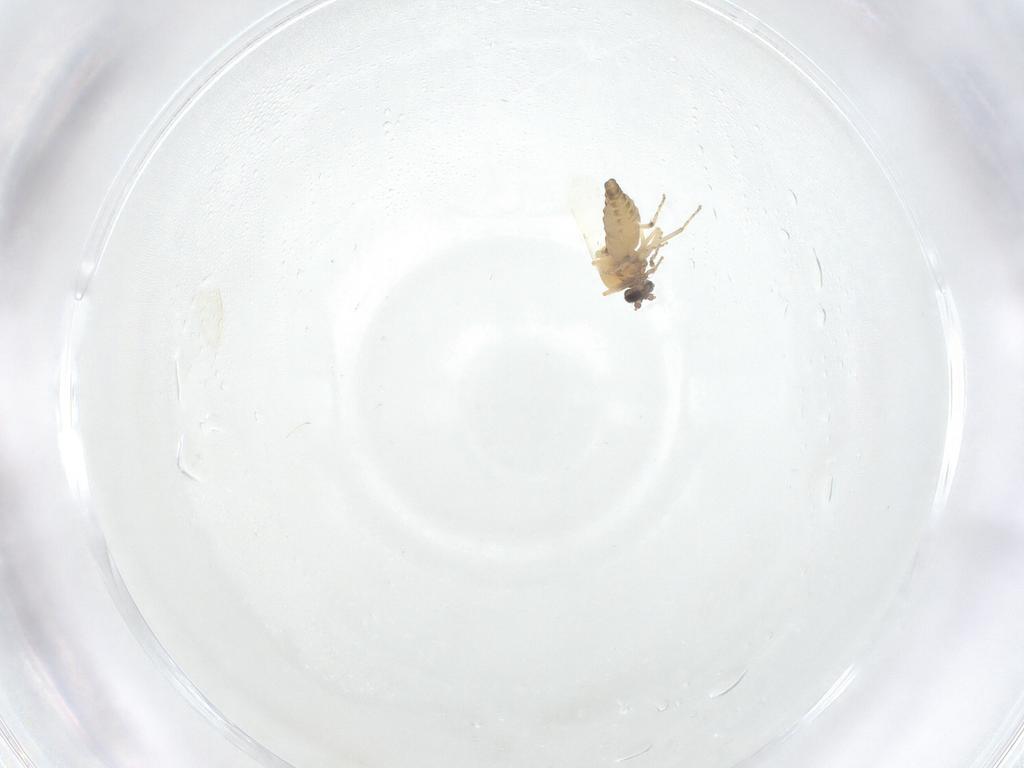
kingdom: Animalia
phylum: Arthropoda
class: Insecta
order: Diptera
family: Ceratopogonidae
